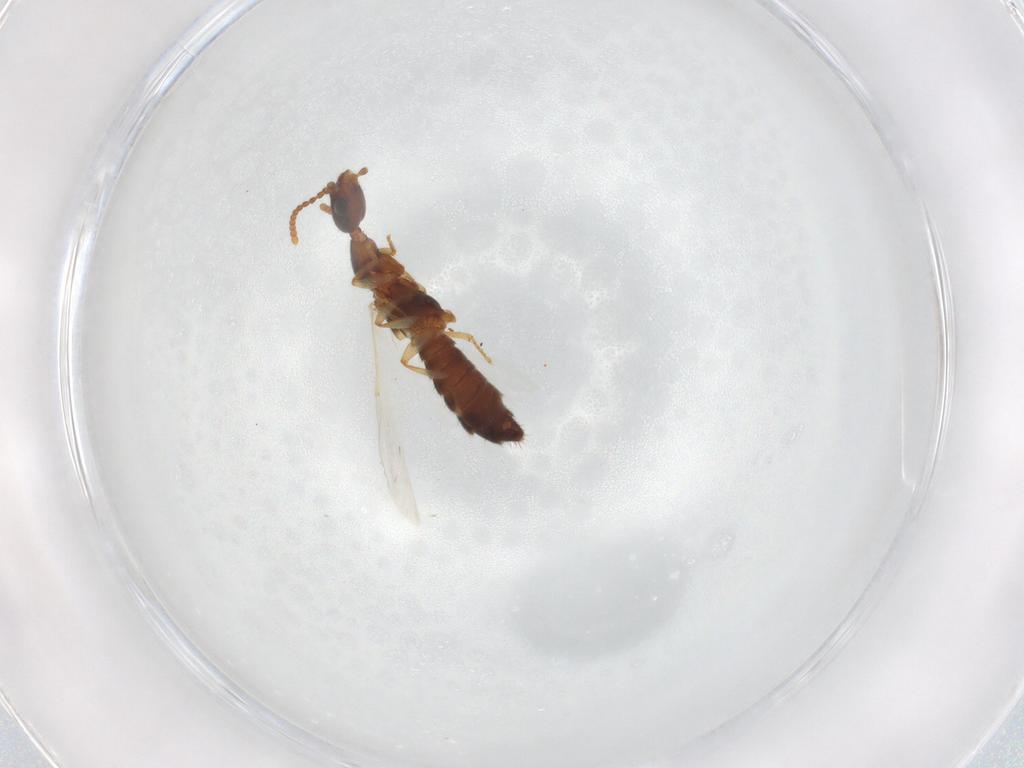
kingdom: Animalia
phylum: Arthropoda
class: Insecta
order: Coleoptera
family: Staphylinidae
